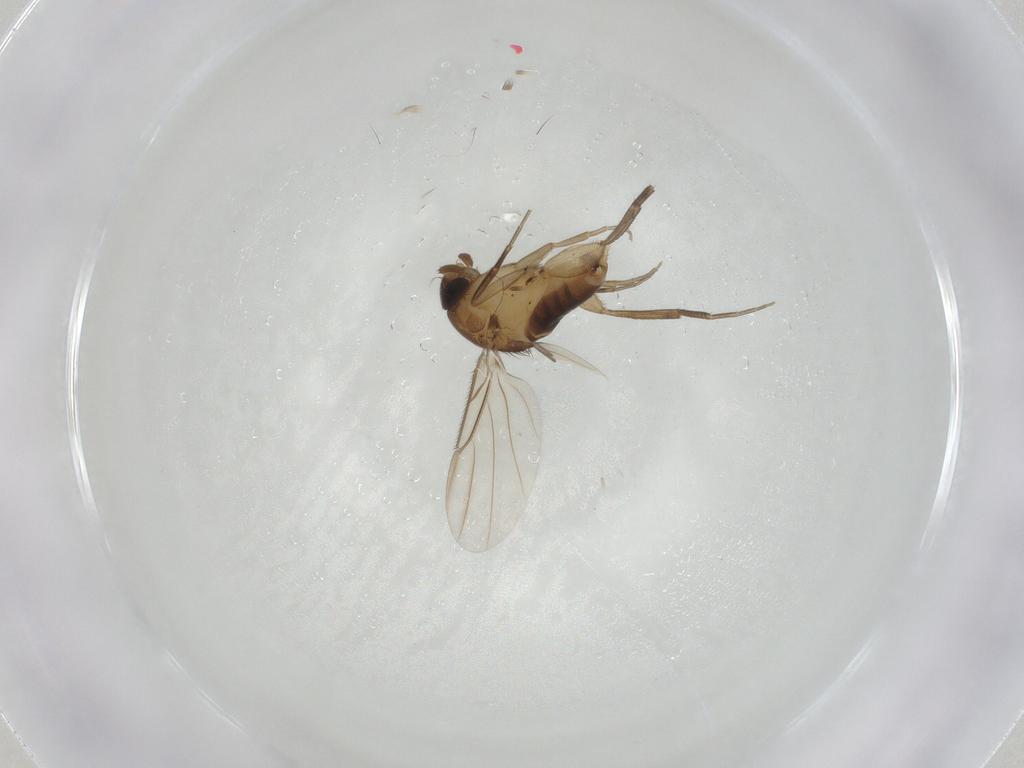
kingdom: Animalia
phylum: Arthropoda
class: Insecta
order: Diptera
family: Phoridae
